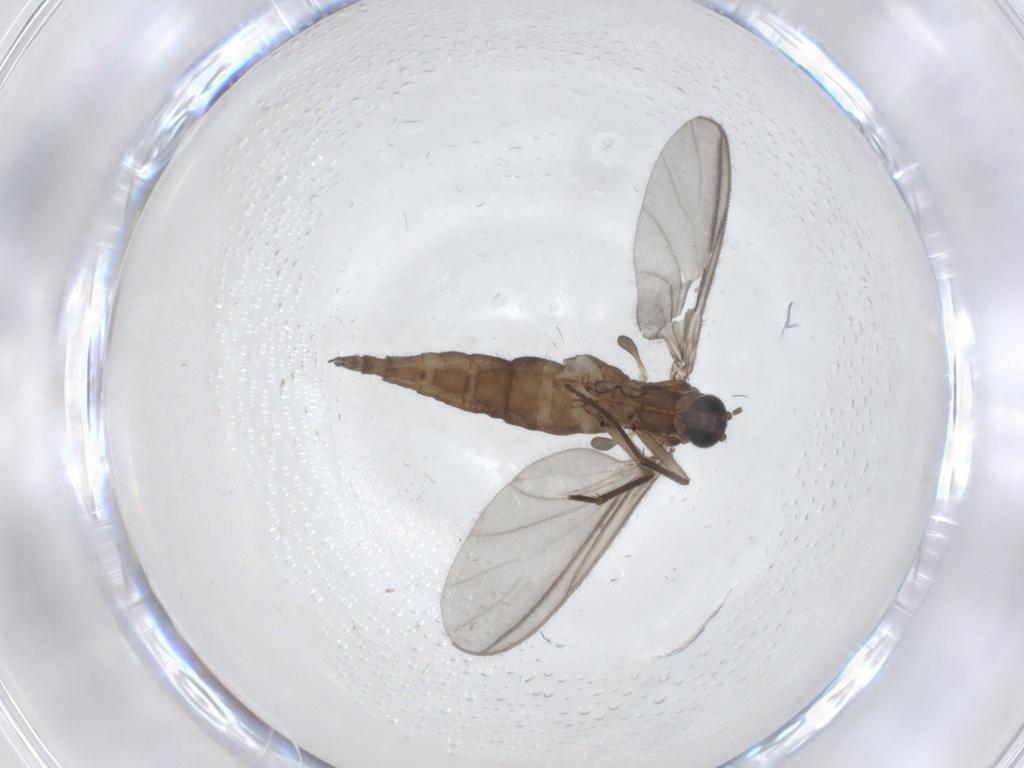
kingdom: Animalia
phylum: Arthropoda
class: Insecta
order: Diptera
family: Sciaridae
